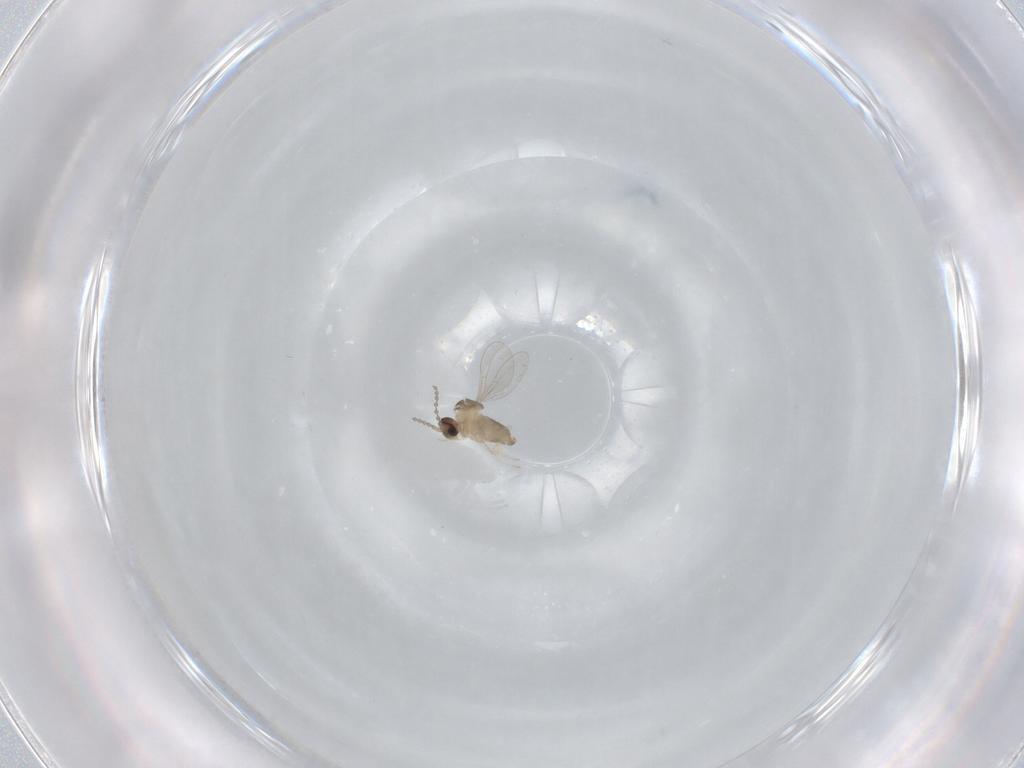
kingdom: Animalia
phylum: Arthropoda
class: Insecta
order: Diptera
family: Cecidomyiidae
